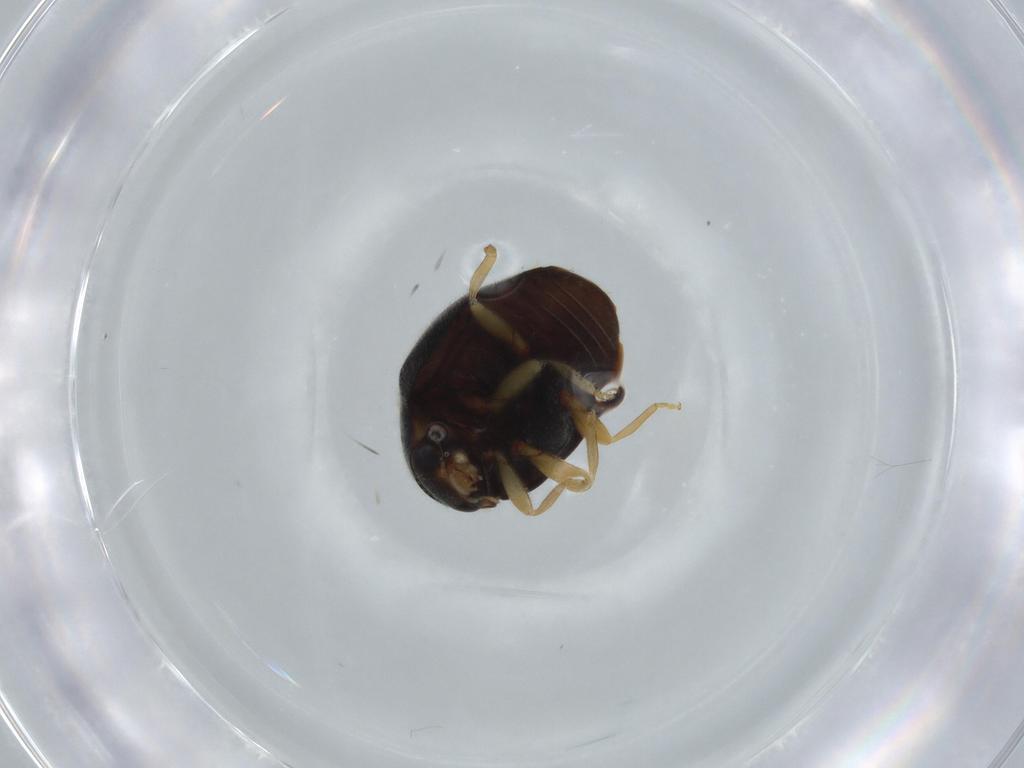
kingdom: Animalia
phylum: Arthropoda
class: Insecta
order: Coleoptera
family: Coccinellidae
